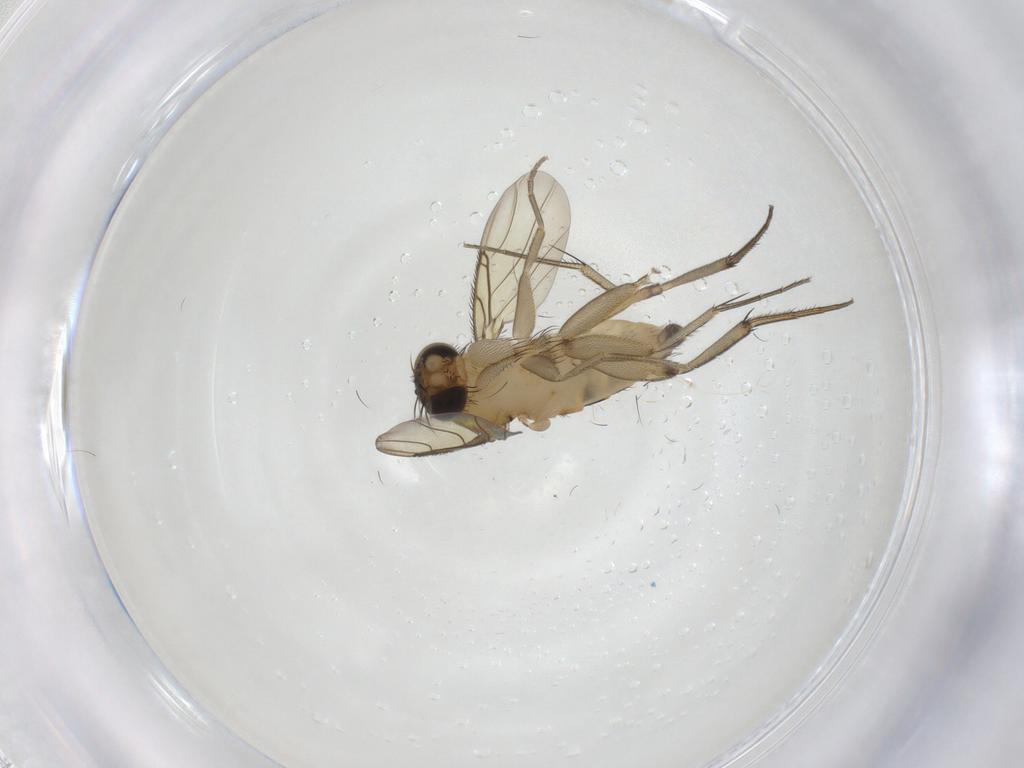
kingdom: Animalia
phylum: Arthropoda
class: Insecta
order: Diptera
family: Phoridae
